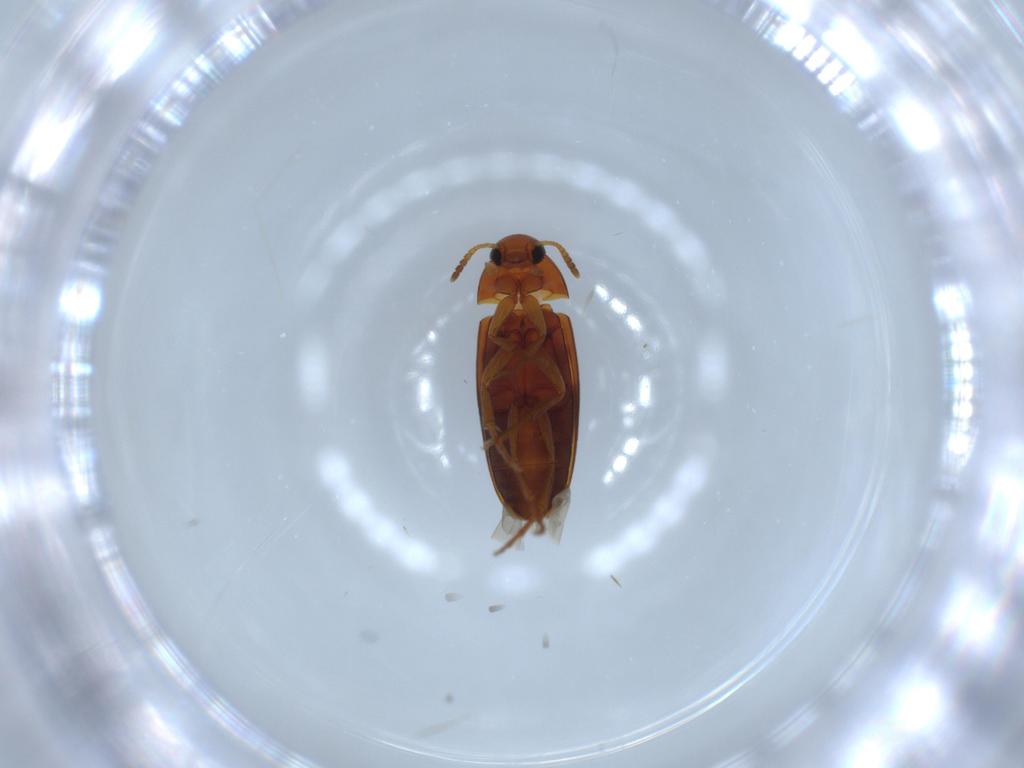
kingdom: Animalia
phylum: Arthropoda
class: Insecta
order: Coleoptera
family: Scraptiidae
